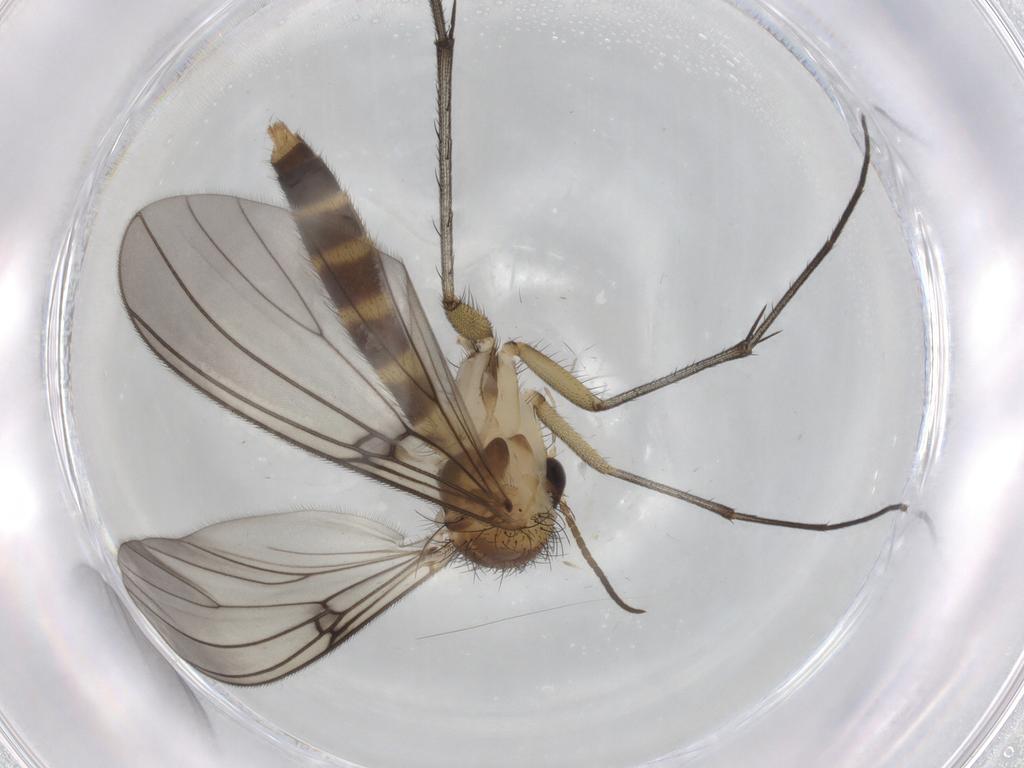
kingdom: Animalia
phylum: Arthropoda
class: Insecta
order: Diptera
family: Mycetophilidae
